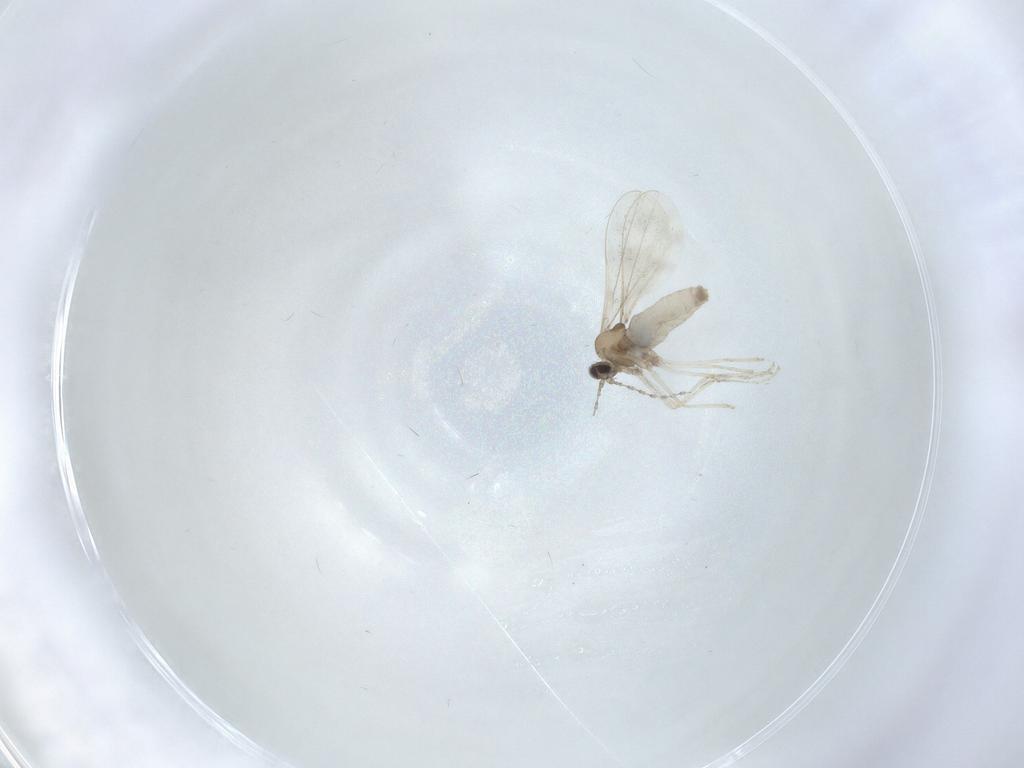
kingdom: Animalia
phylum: Arthropoda
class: Insecta
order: Diptera
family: Cecidomyiidae
